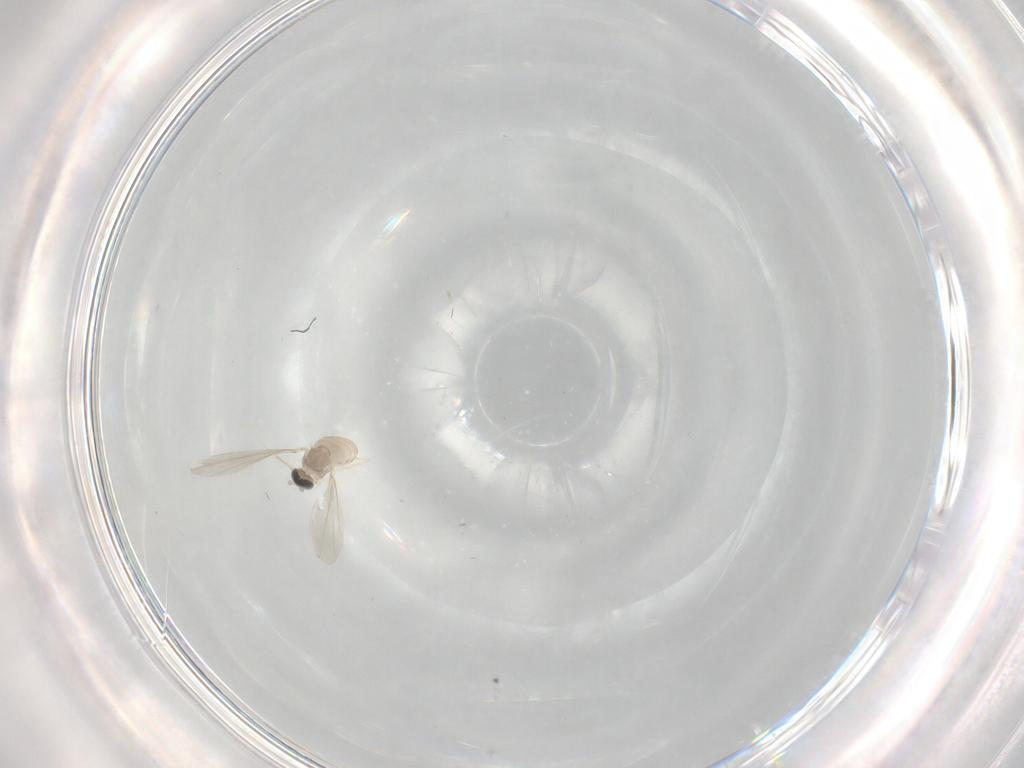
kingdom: Animalia
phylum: Arthropoda
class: Insecta
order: Diptera
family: Cecidomyiidae
